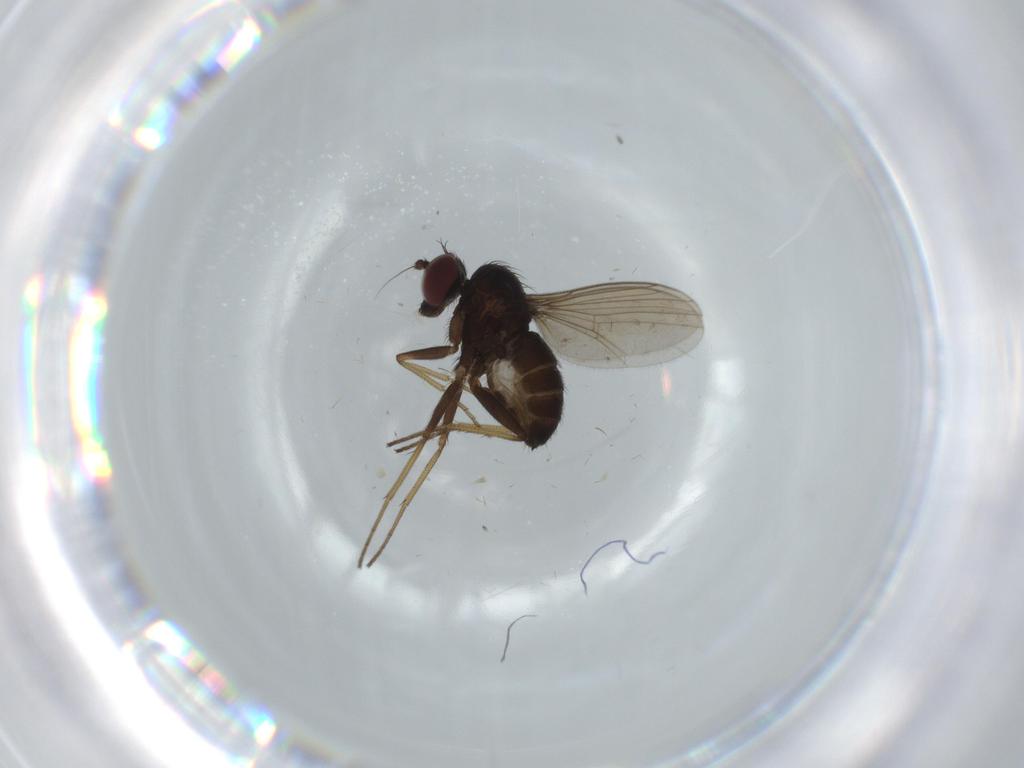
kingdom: Animalia
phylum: Arthropoda
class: Insecta
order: Diptera
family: Dolichopodidae
